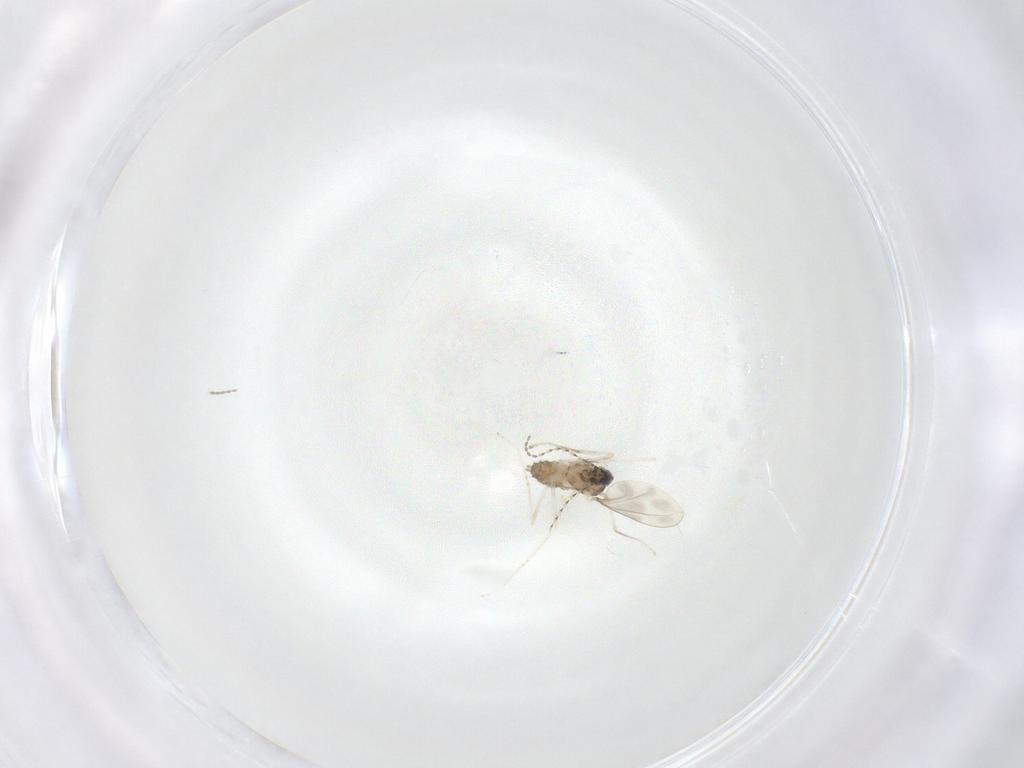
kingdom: Animalia
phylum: Arthropoda
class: Insecta
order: Diptera
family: Cecidomyiidae
